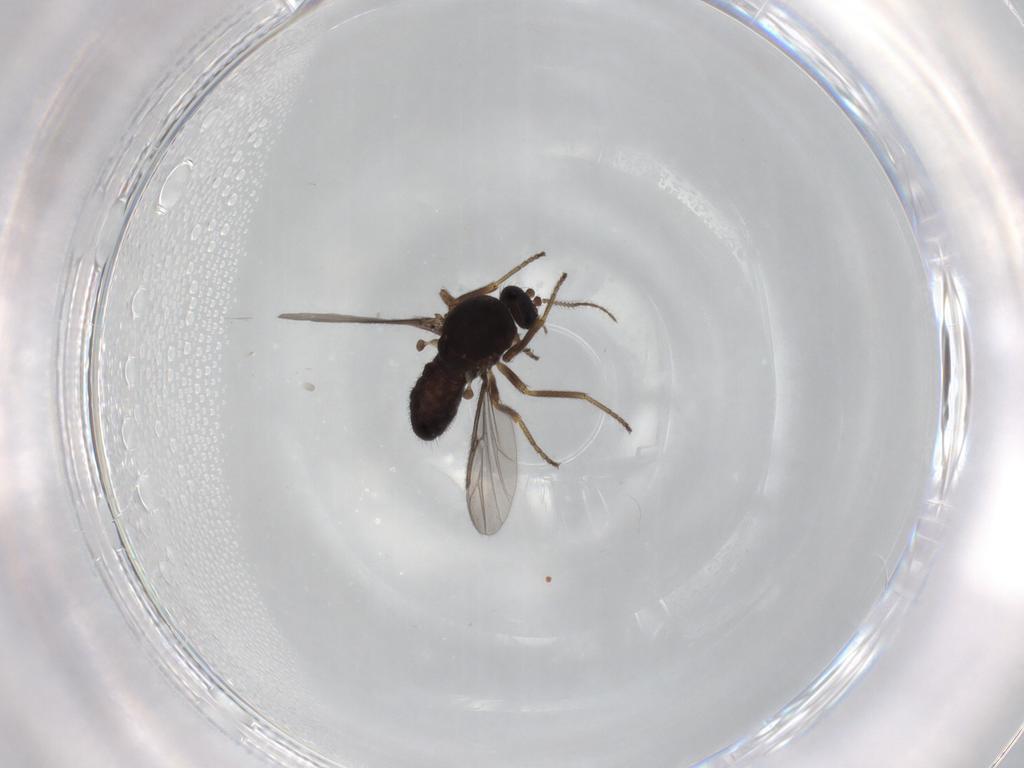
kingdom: Animalia
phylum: Arthropoda
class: Insecta
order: Diptera
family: Ceratopogonidae
